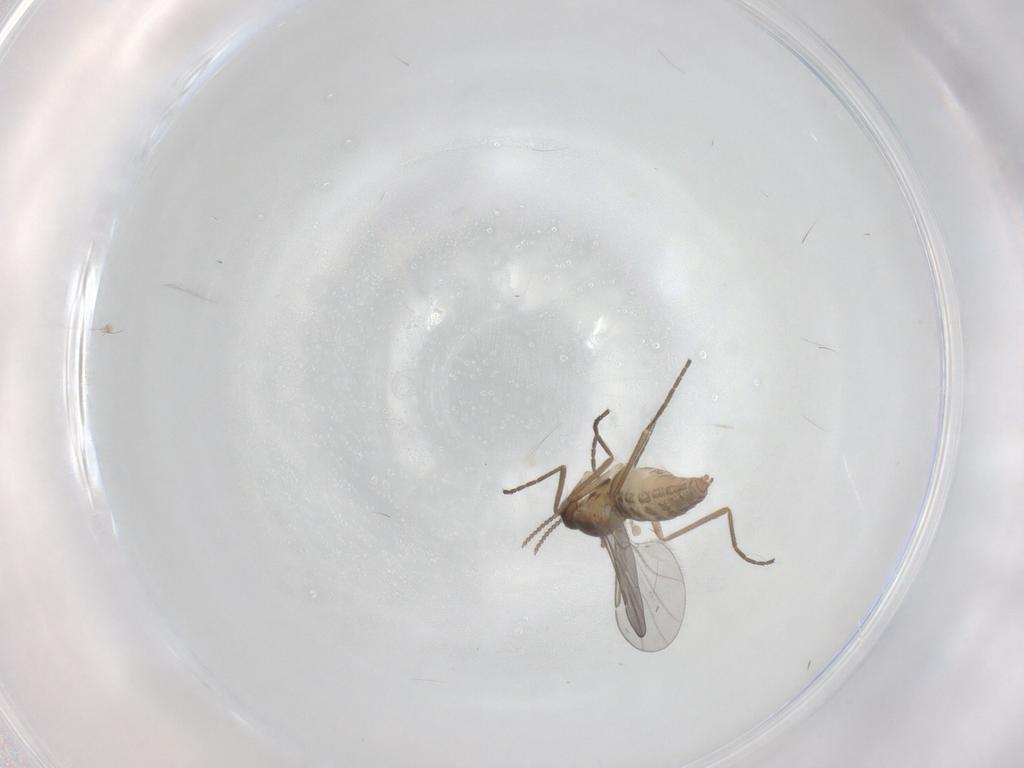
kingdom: Animalia
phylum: Arthropoda
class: Insecta
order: Diptera
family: Cecidomyiidae
